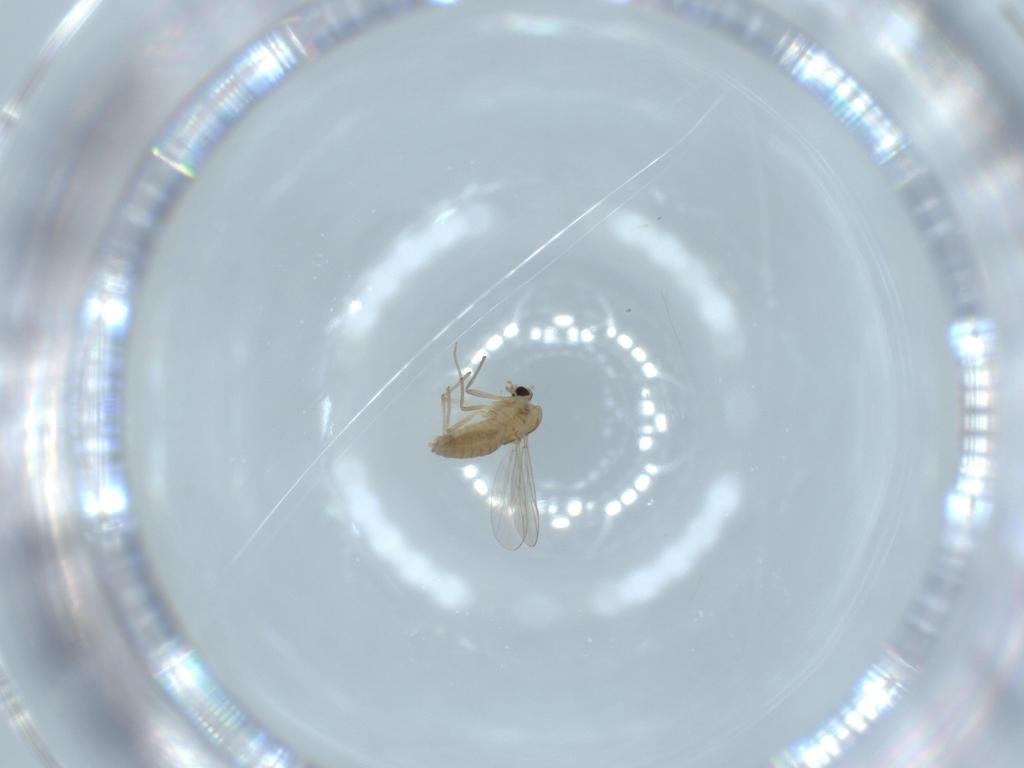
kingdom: Animalia
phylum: Arthropoda
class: Insecta
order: Diptera
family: Chironomidae
